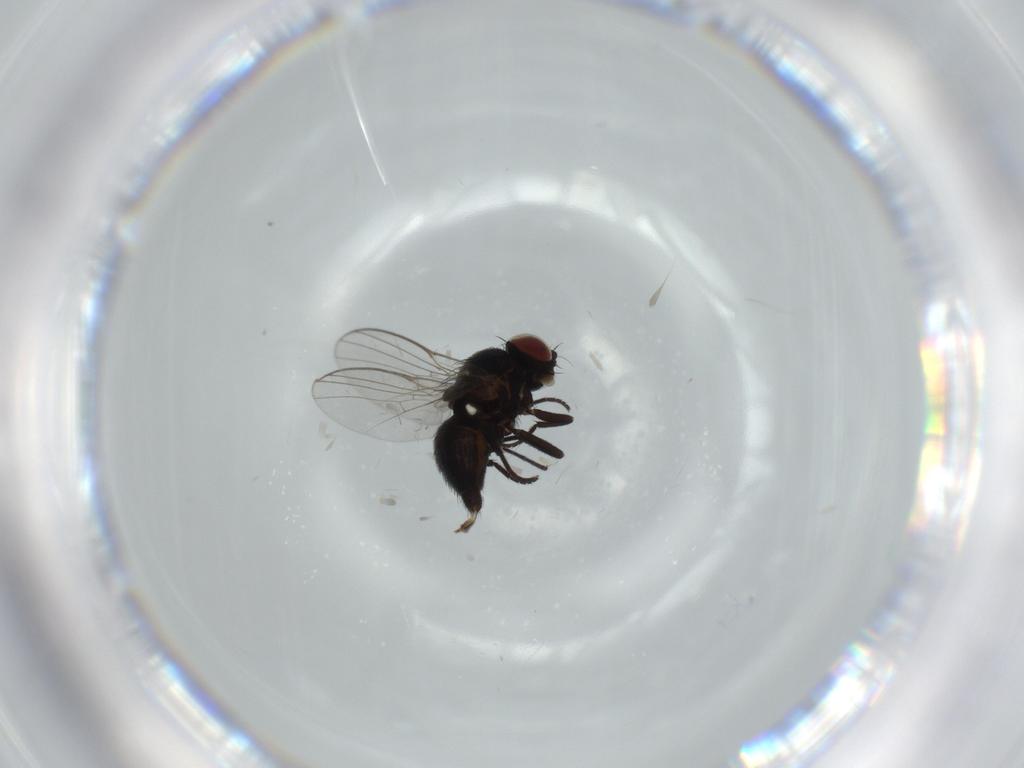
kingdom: Animalia
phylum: Arthropoda
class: Insecta
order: Diptera
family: Agromyzidae
